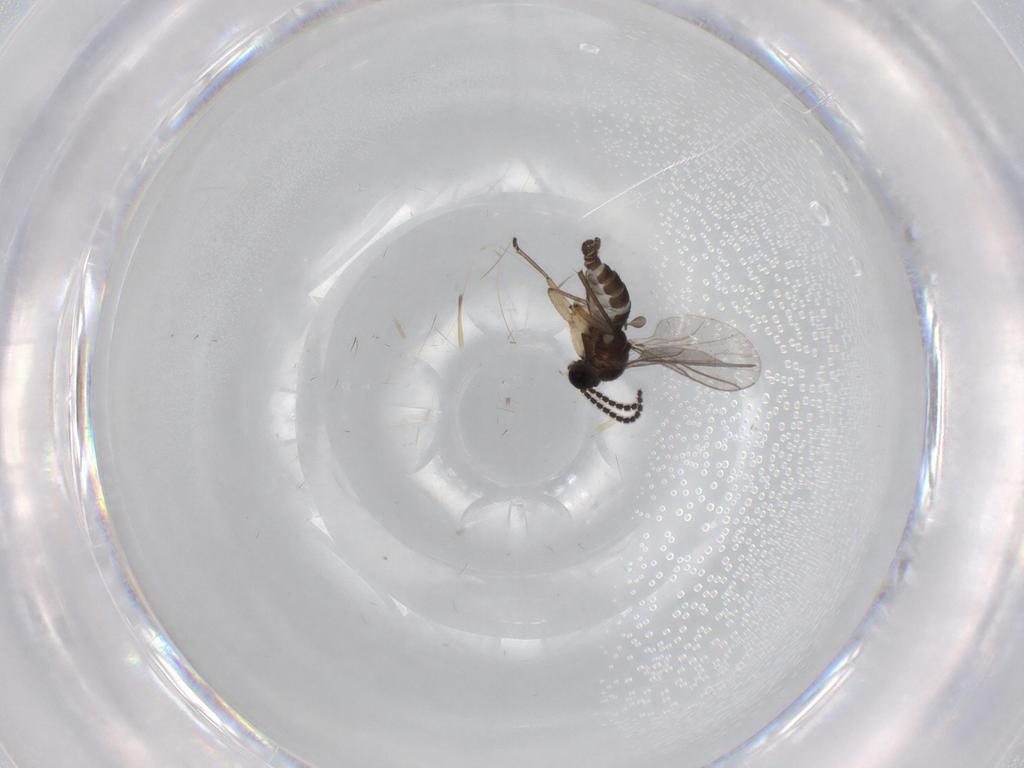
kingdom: Animalia
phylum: Arthropoda
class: Insecta
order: Diptera
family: Sciaridae
